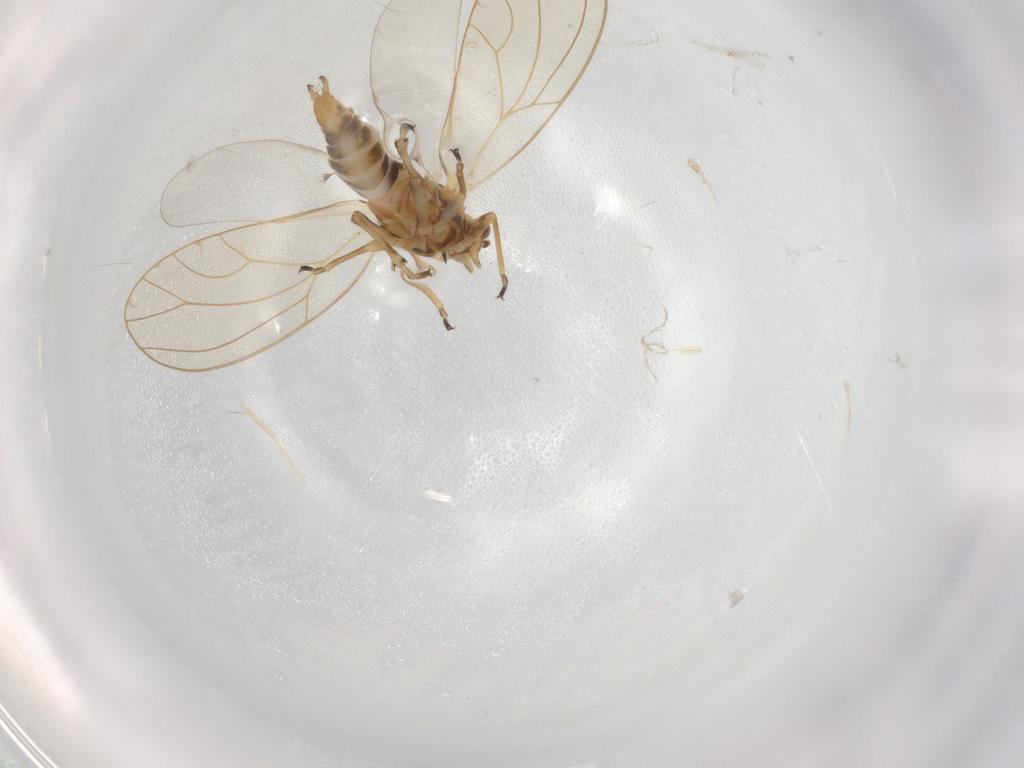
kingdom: Animalia
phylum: Arthropoda
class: Insecta
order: Hemiptera
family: Triozidae
